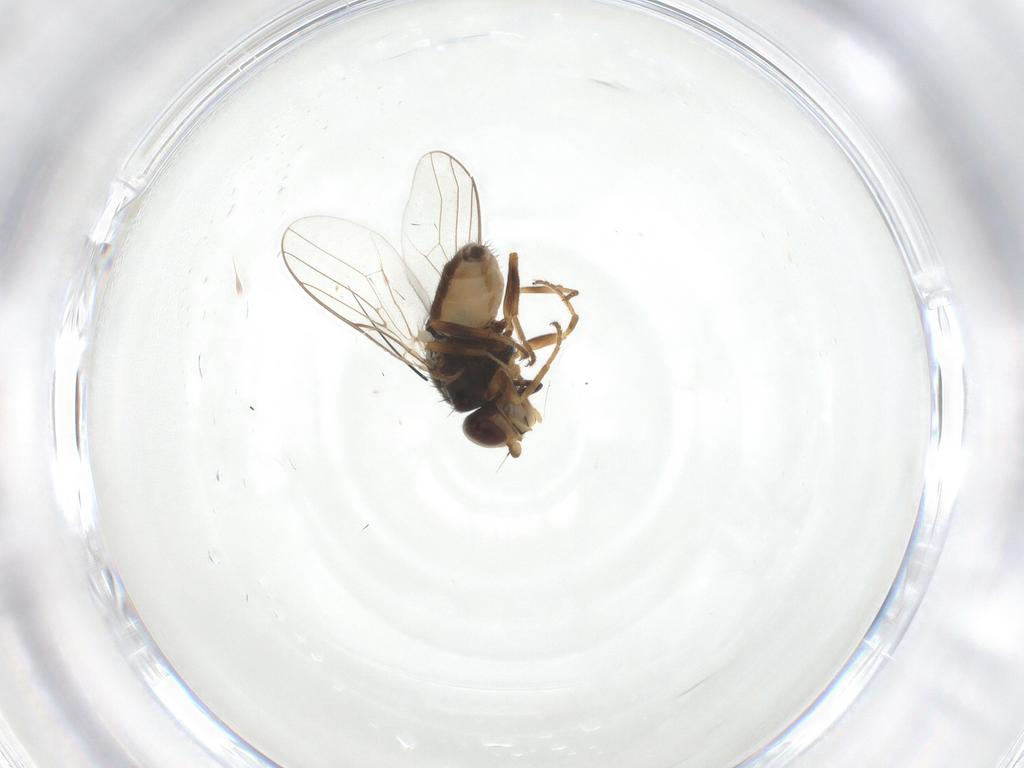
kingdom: Animalia
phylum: Arthropoda
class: Insecta
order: Diptera
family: Chloropidae
